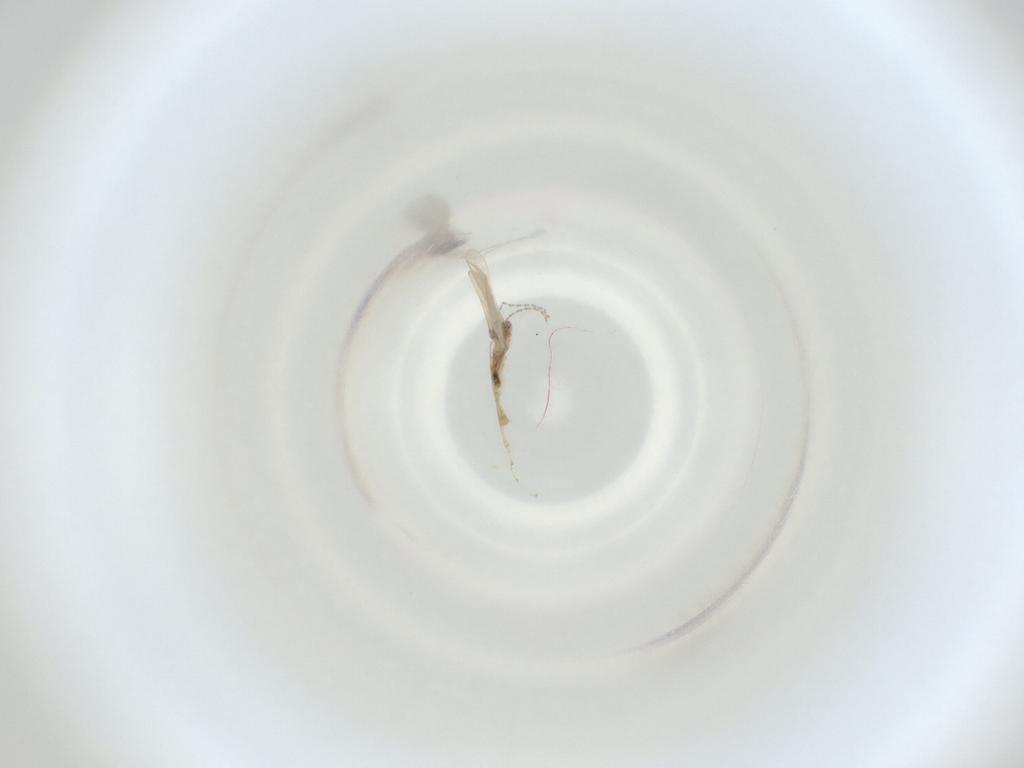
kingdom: Animalia
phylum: Arthropoda
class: Insecta
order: Diptera
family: Cecidomyiidae
